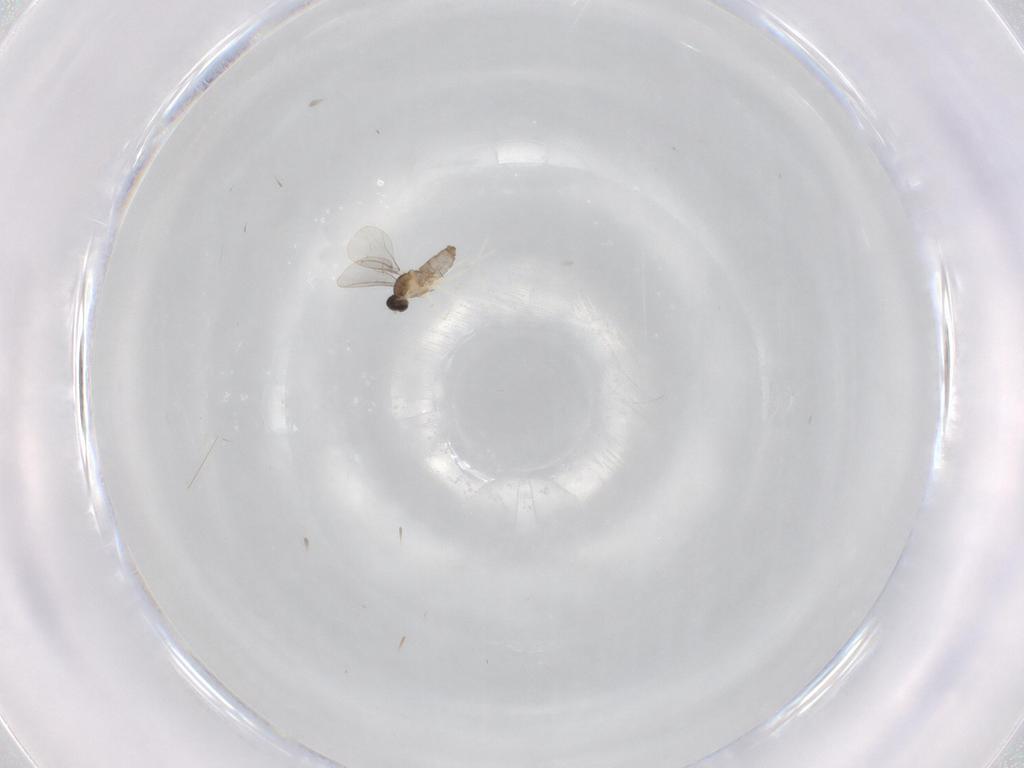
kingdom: Animalia
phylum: Arthropoda
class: Insecta
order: Diptera
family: Phoridae
